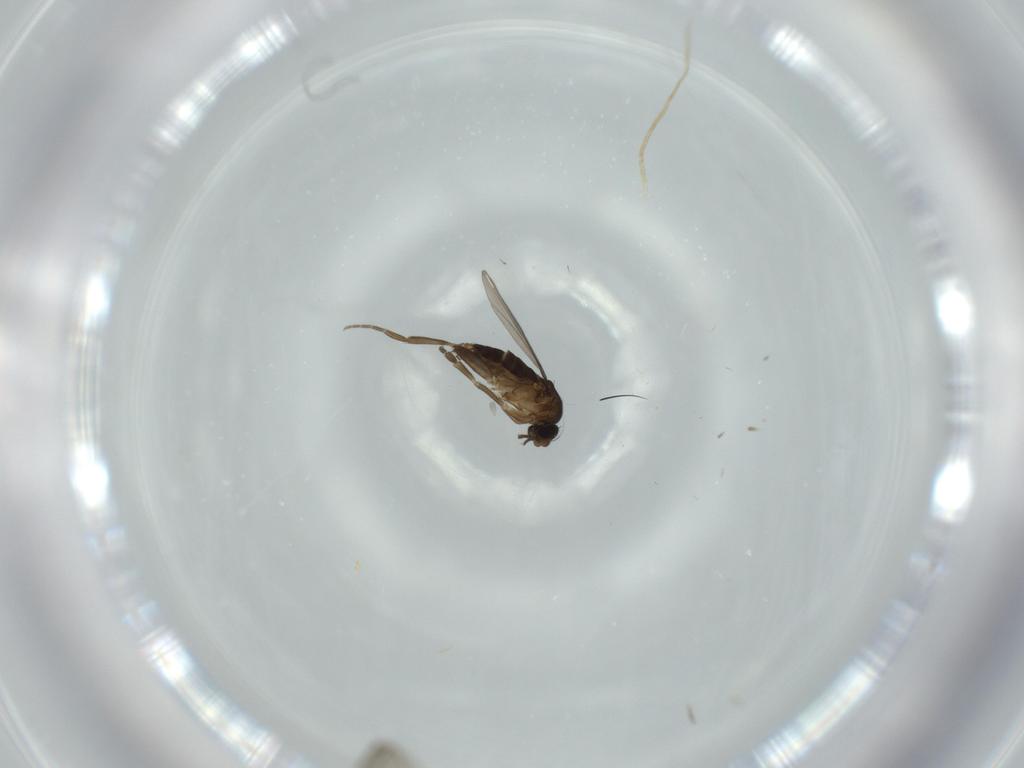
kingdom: Animalia
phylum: Arthropoda
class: Insecta
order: Diptera
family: Phoridae
